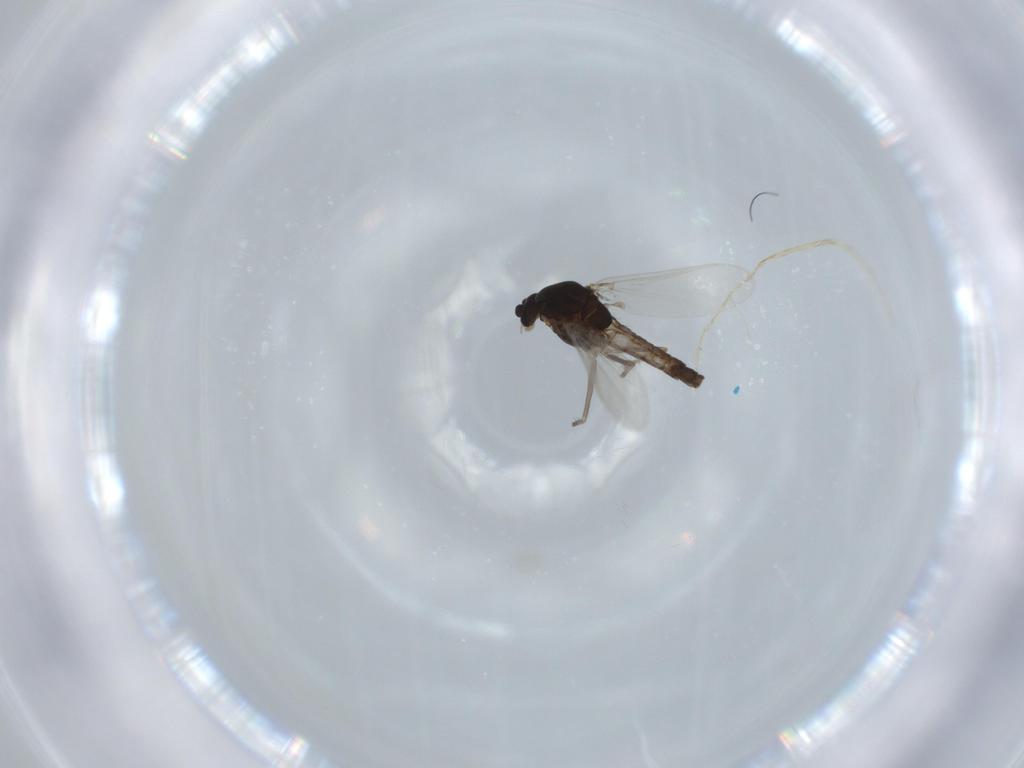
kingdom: Animalia
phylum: Arthropoda
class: Insecta
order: Diptera
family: Chironomidae
